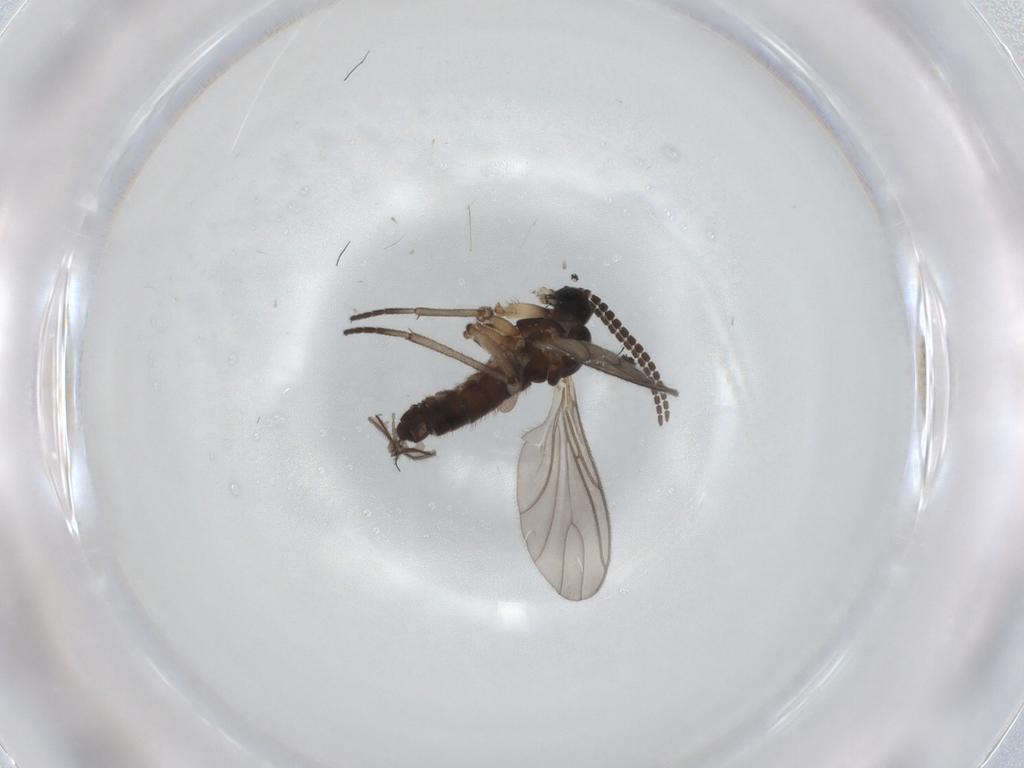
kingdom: Animalia
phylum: Arthropoda
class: Insecta
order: Diptera
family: Sciaridae
